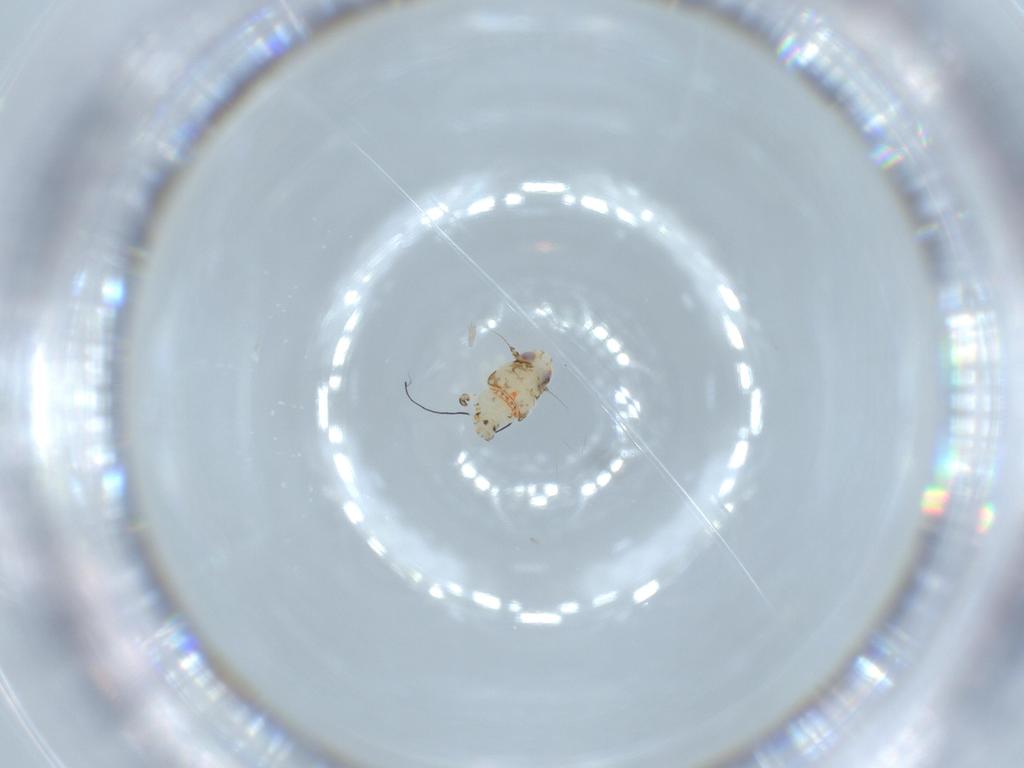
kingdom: Animalia
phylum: Arthropoda
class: Insecta
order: Hemiptera
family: Nogodinidae
